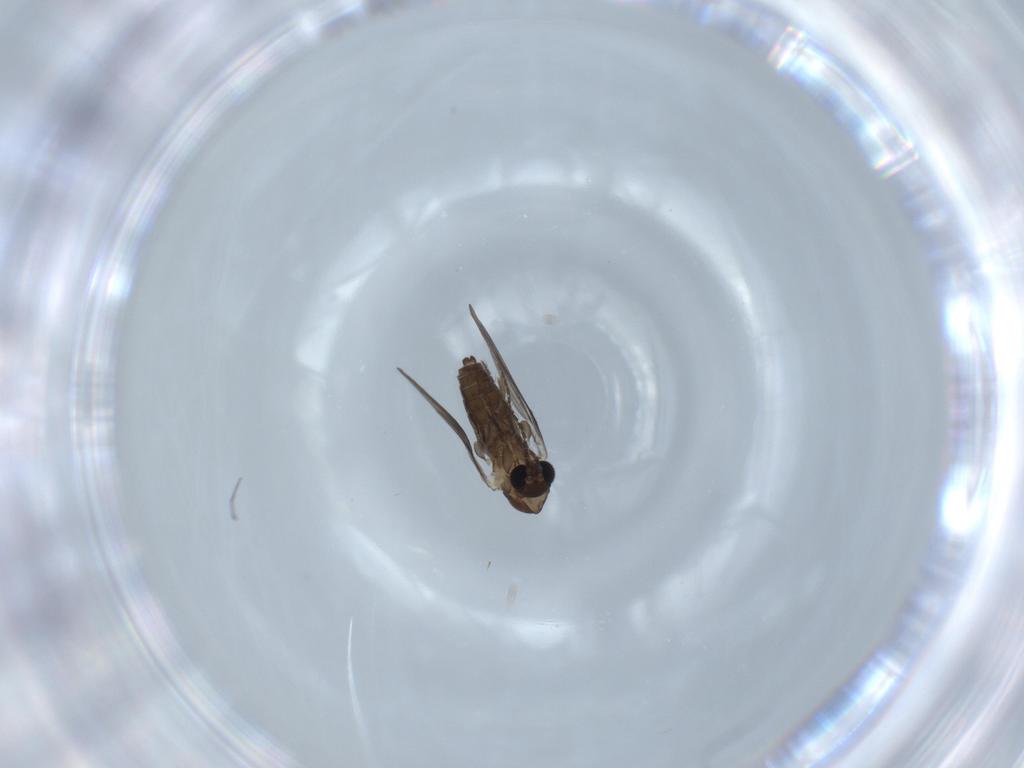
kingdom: Animalia
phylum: Arthropoda
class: Insecta
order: Diptera
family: Psychodidae
